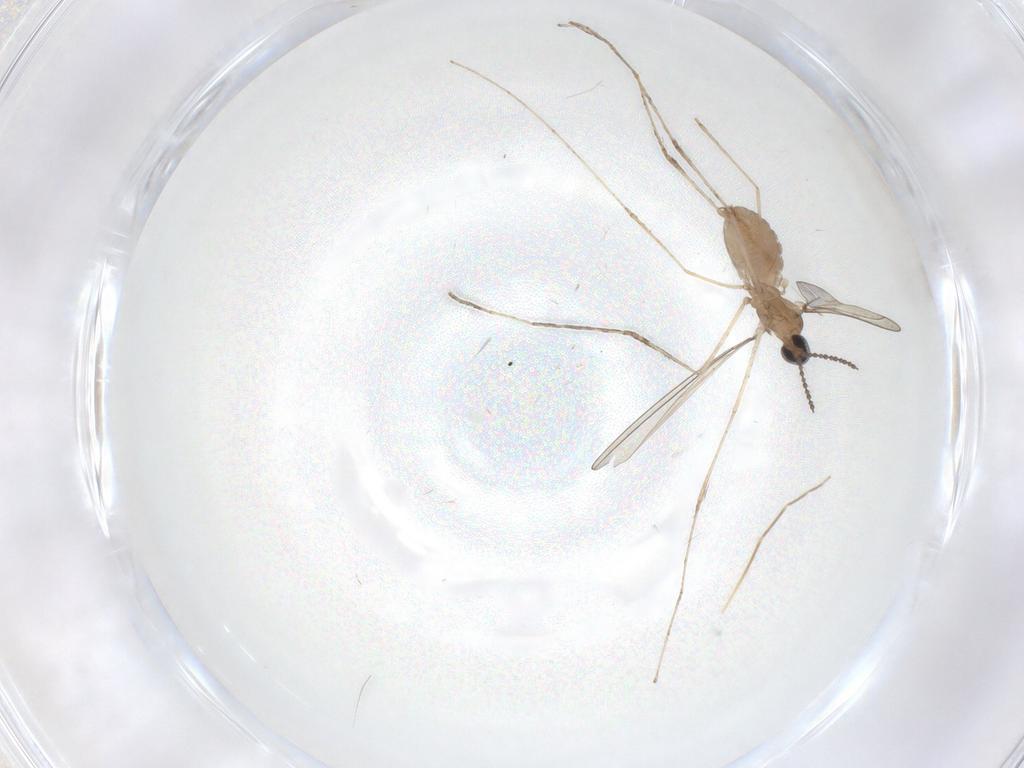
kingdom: Animalia
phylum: Arthropoda
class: Insecta
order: Diptera
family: Cecidomyiidae
